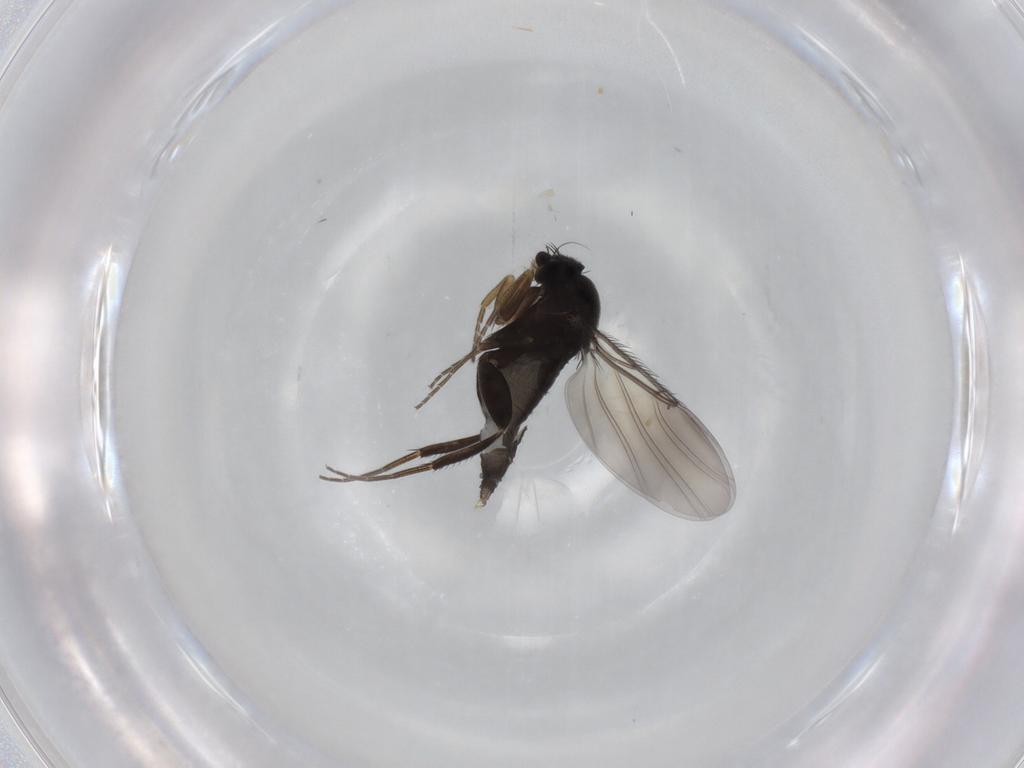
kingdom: Animalia
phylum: Arthropoda
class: Insecta
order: Diptera
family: Phoridae
